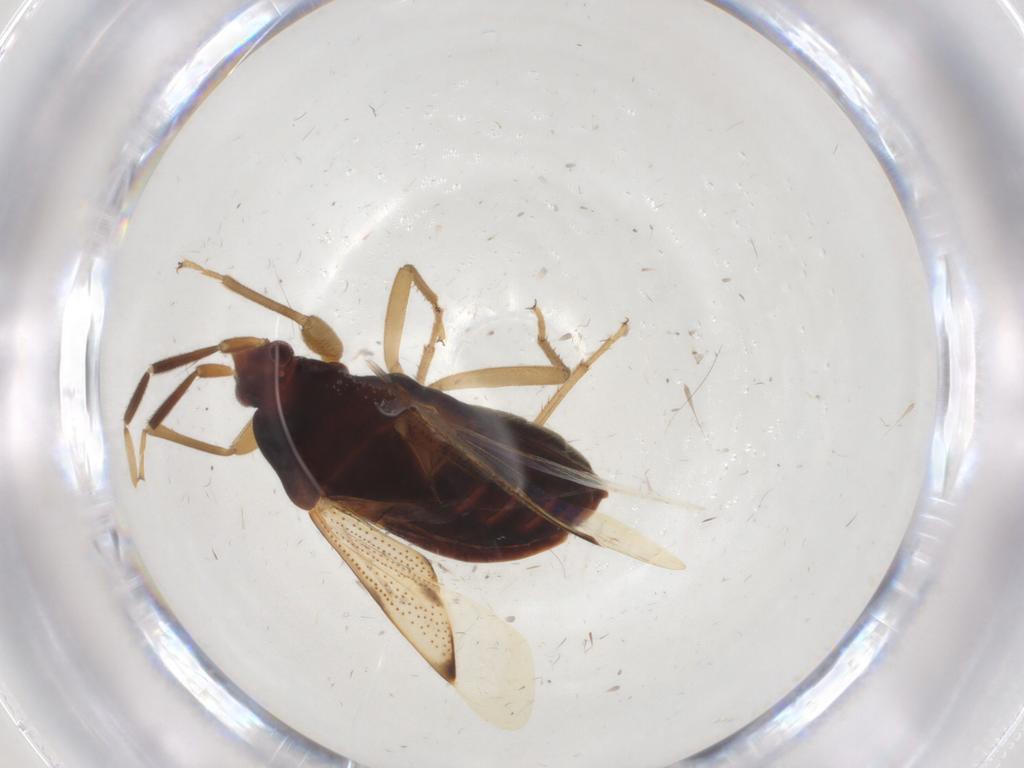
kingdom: Animalia
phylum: Arthropoda
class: Insecta
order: Hemiptera
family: Rhyparochromidae
